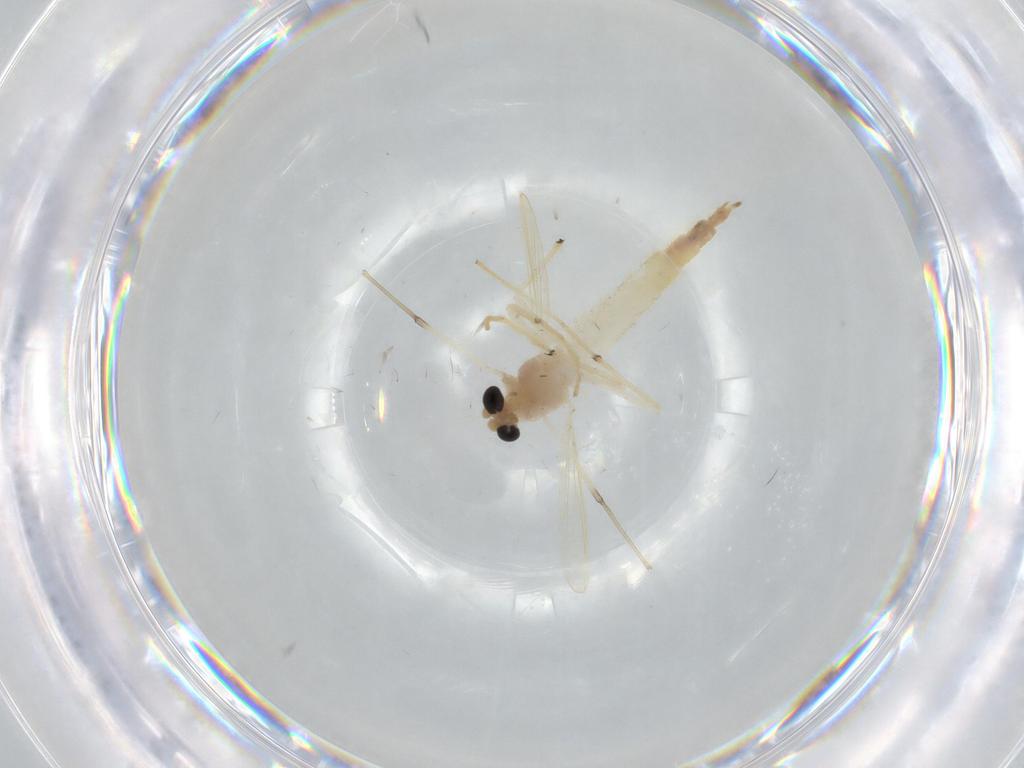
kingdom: Animalia
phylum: Arthropoda
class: Insecta
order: Diptera
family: Chironomidae
